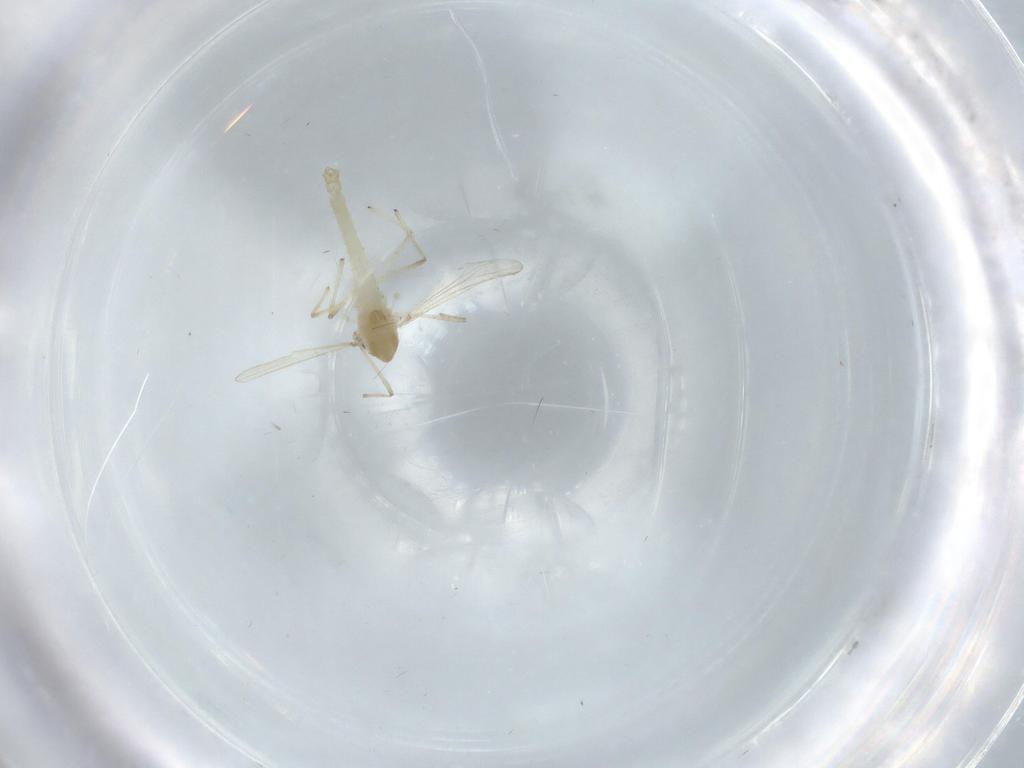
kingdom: Animalia
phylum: Arthropoda
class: Insecta
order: Diptera
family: Chironomidae
